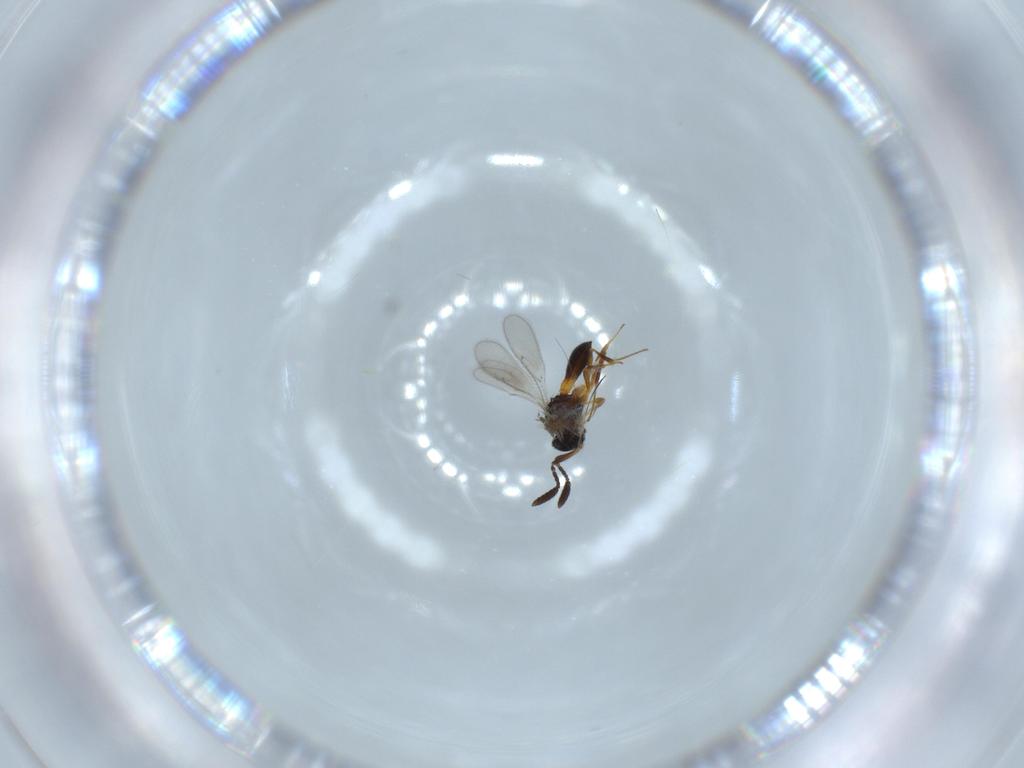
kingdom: Animalia
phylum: Arthropoda
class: Insecta
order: Hymenoptera
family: Scelionidae
